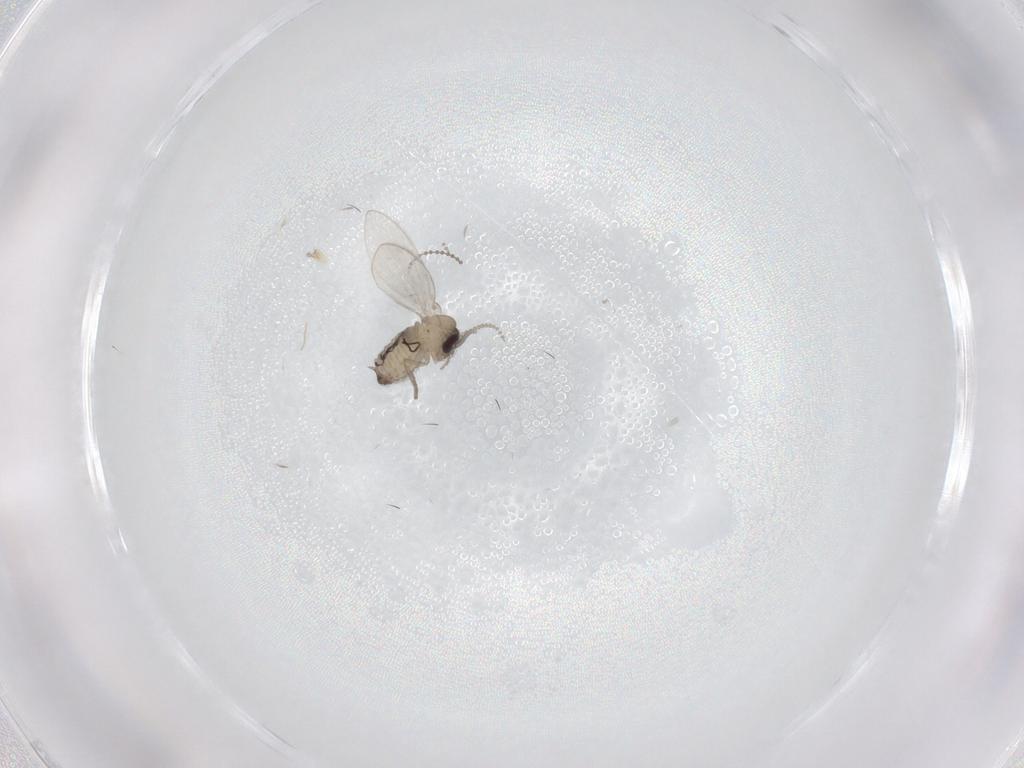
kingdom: Animalia
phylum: Arthropoda
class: Insecta
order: Diptera
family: Psychodidae
